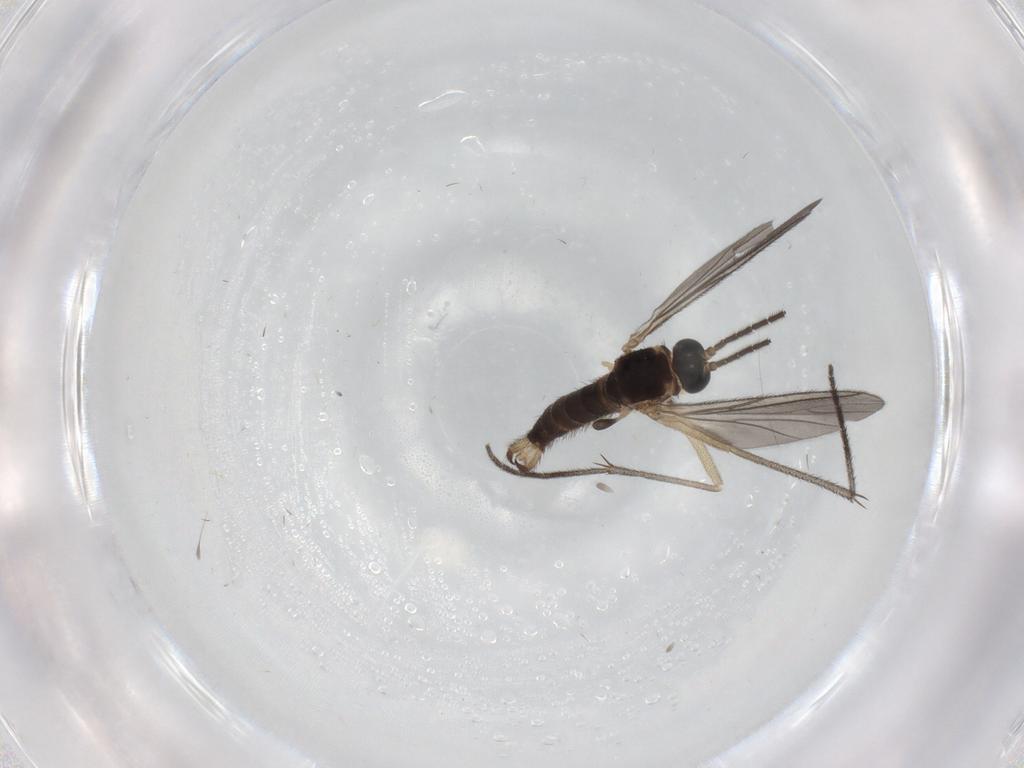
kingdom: Animalia
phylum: Arthropoda
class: Insecta
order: Diptera
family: Sciaridae
